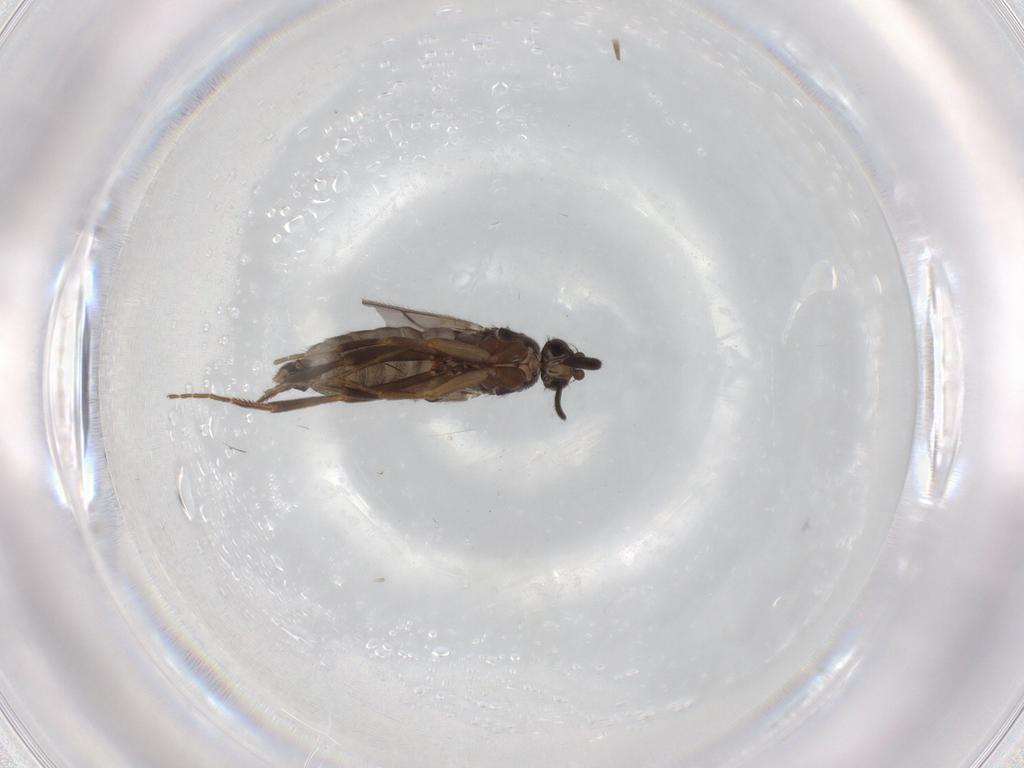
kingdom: Animalia
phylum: Arthropoda
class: Insecta
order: Diptera
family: Phoridae
